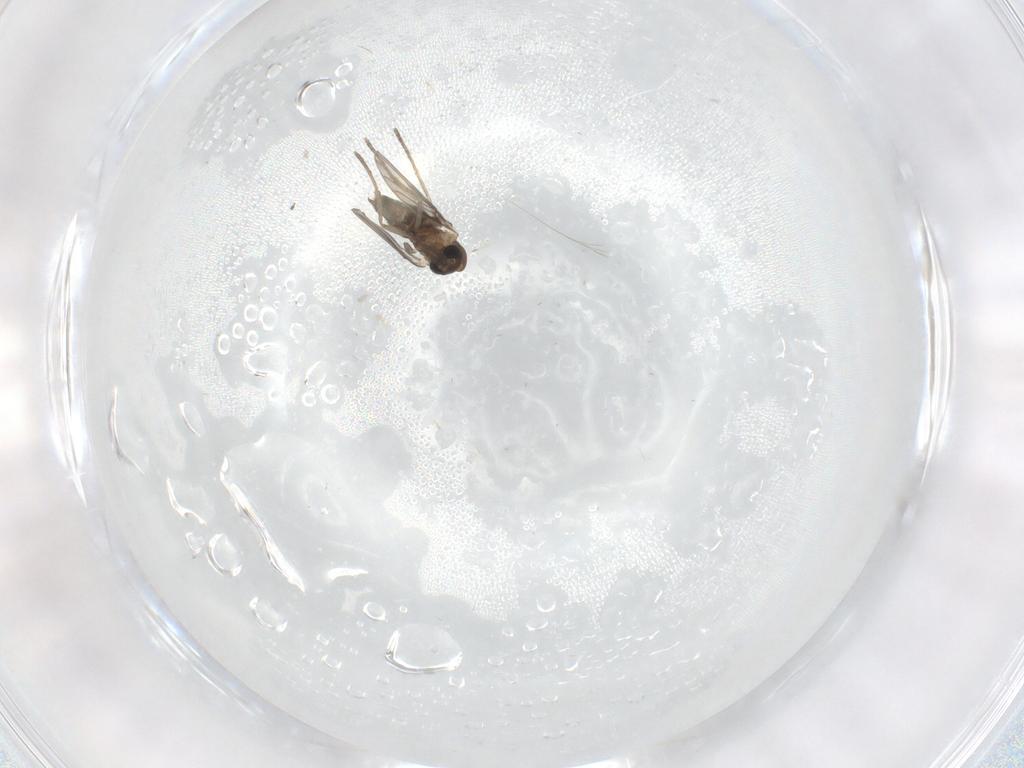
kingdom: Animalia
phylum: Arthropoda
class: Insecta
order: Diptera
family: Cecidomyiidae
